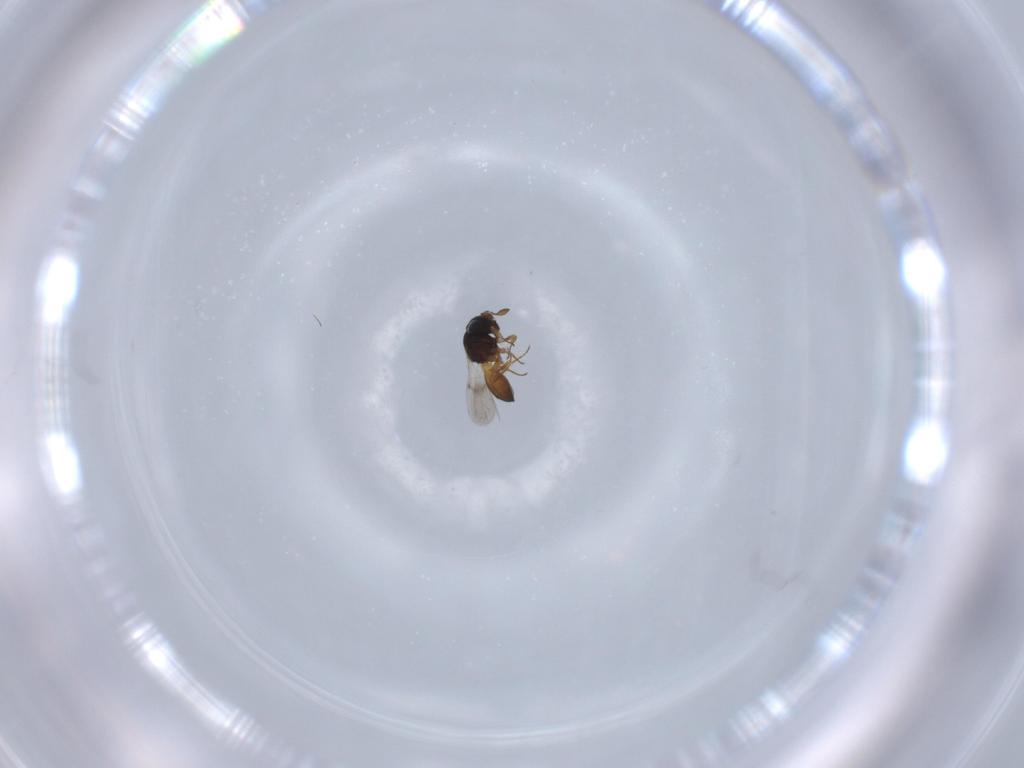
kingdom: Animalia
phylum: Arthropoda
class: Insecta
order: Hymenoptera
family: Scelionidae
